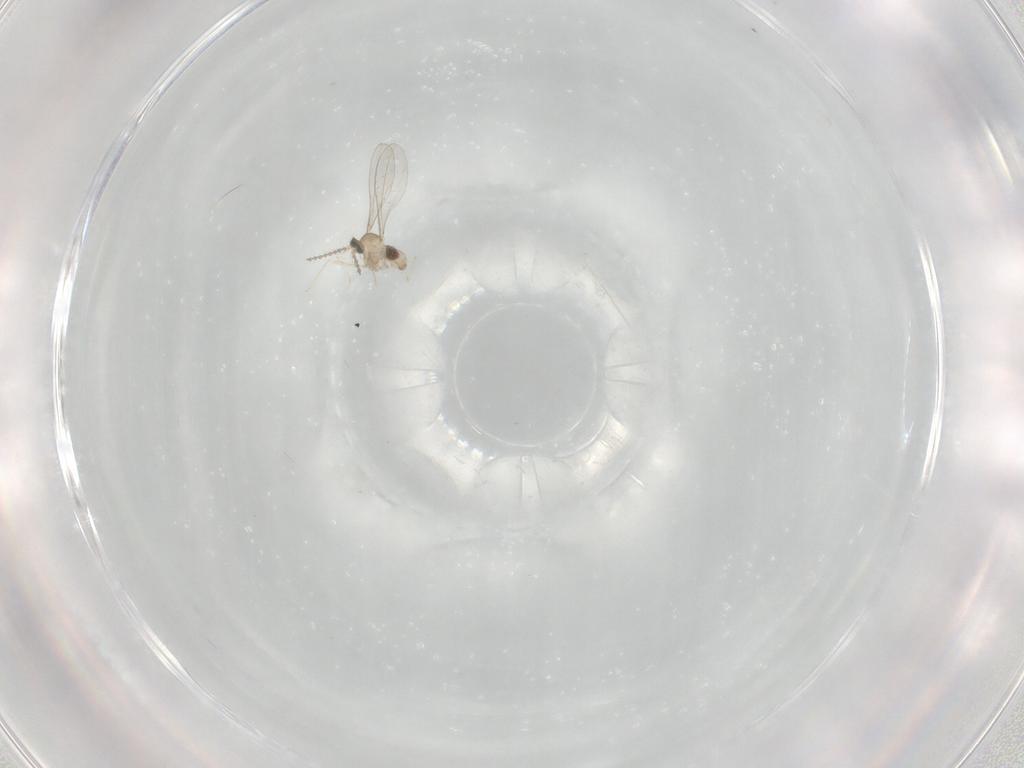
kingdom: Animalia
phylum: Arthropoda
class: Insecta
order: Diptera
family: Cecidomyiidae
